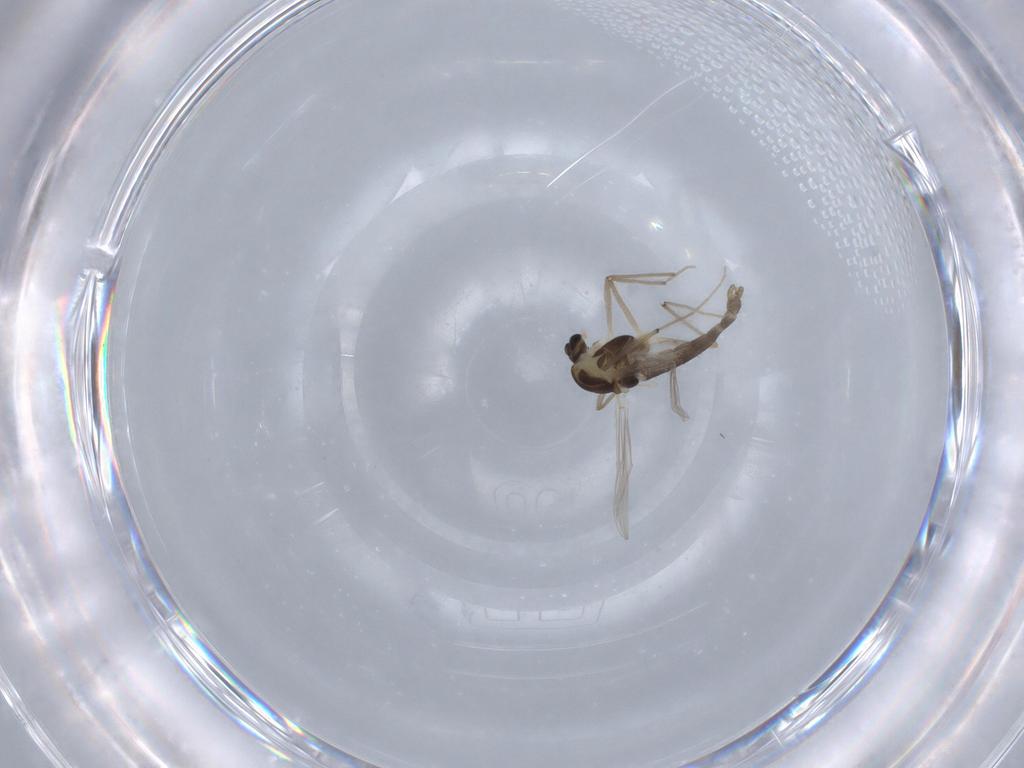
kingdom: Animalia
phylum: Arthropoda
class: Insecta
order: Diptera
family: Chironomidae
